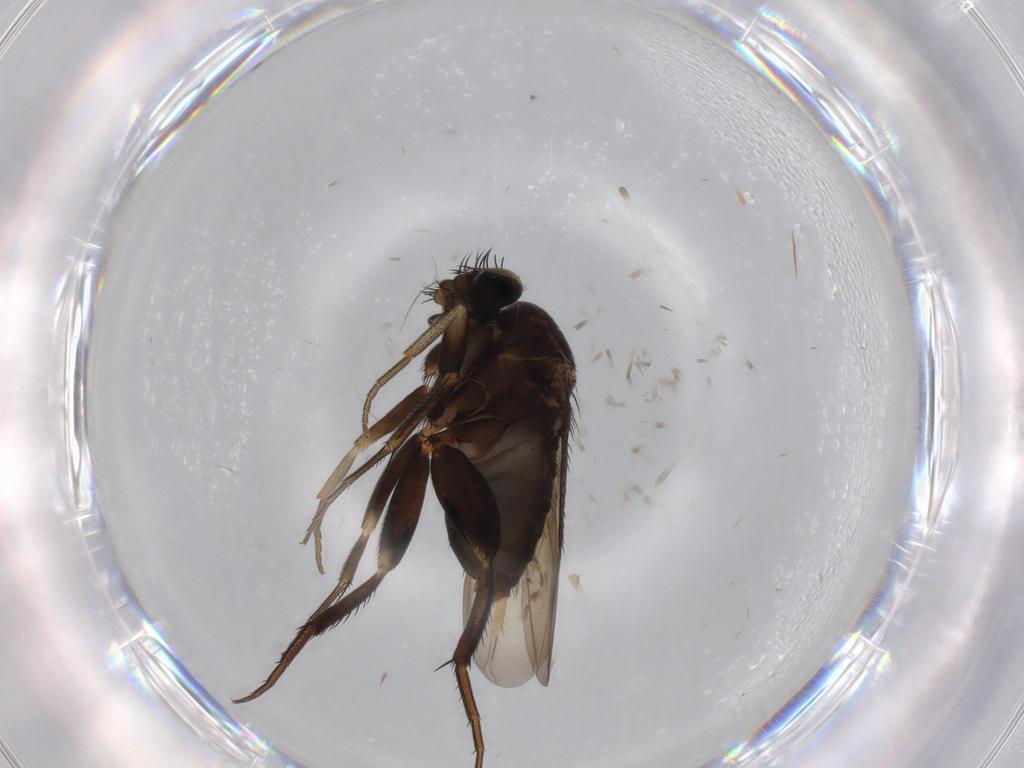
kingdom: Animalia
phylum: Arthropoda
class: Insecta
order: Diptera
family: Phoridae
